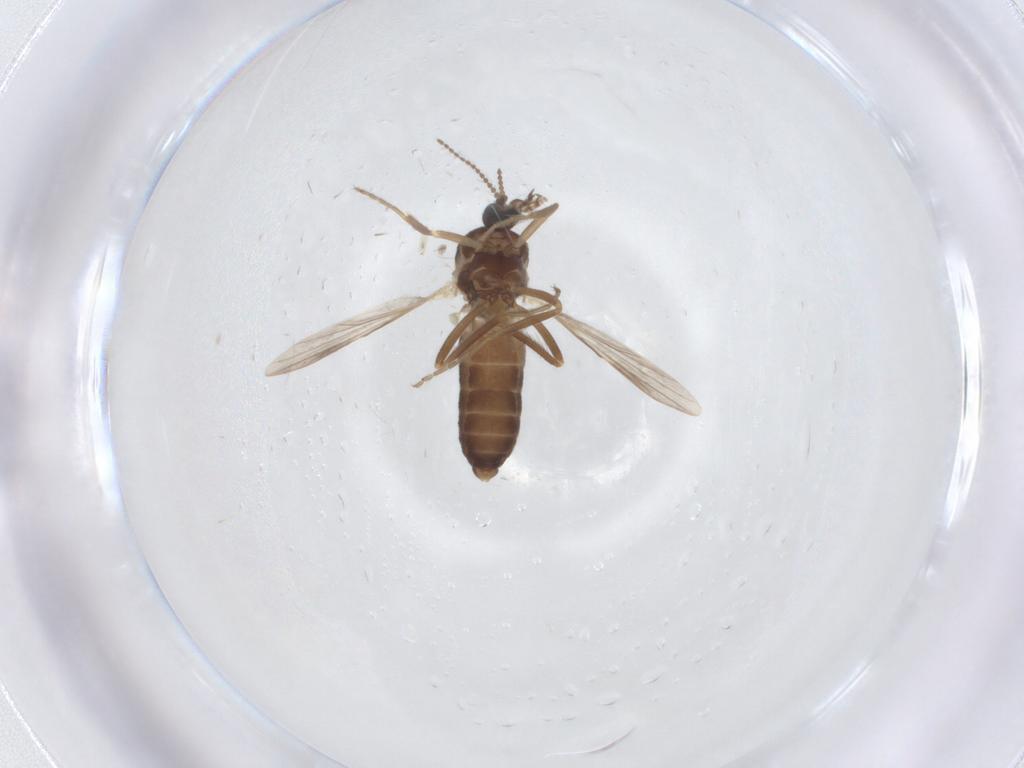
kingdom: Animalia
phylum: Arthropoda
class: Insecta
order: Diptera
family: Ceratopogonidae
